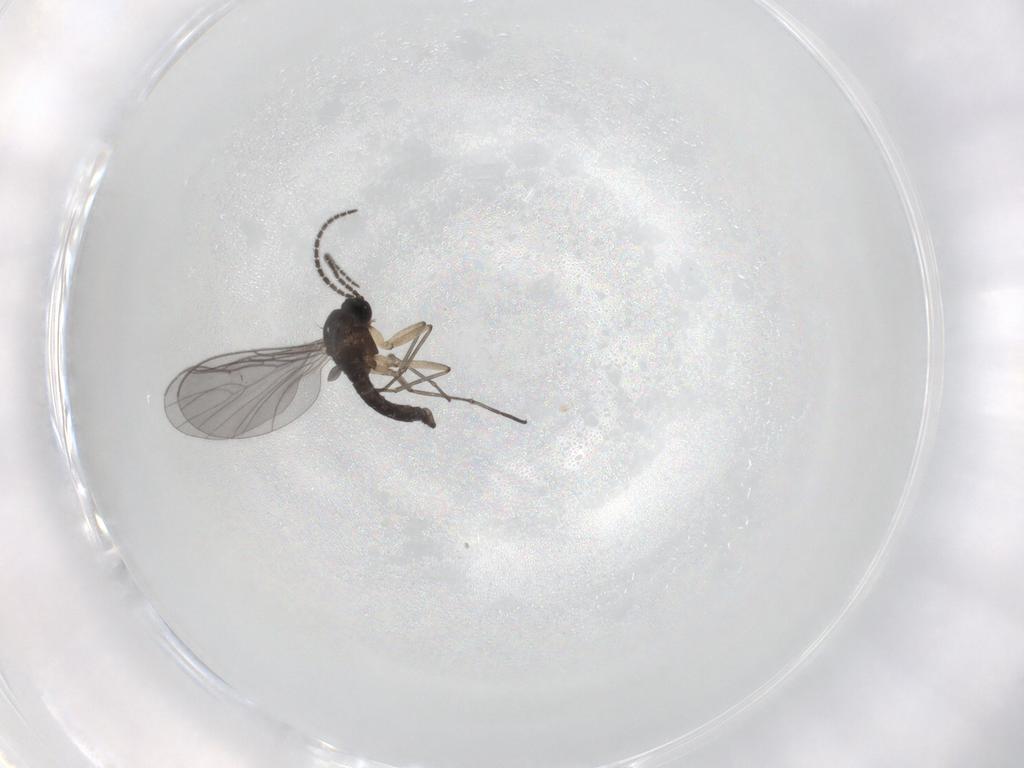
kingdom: Animalia
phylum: Arthropoda
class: Insecta
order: Diptera
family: Sciaridae
